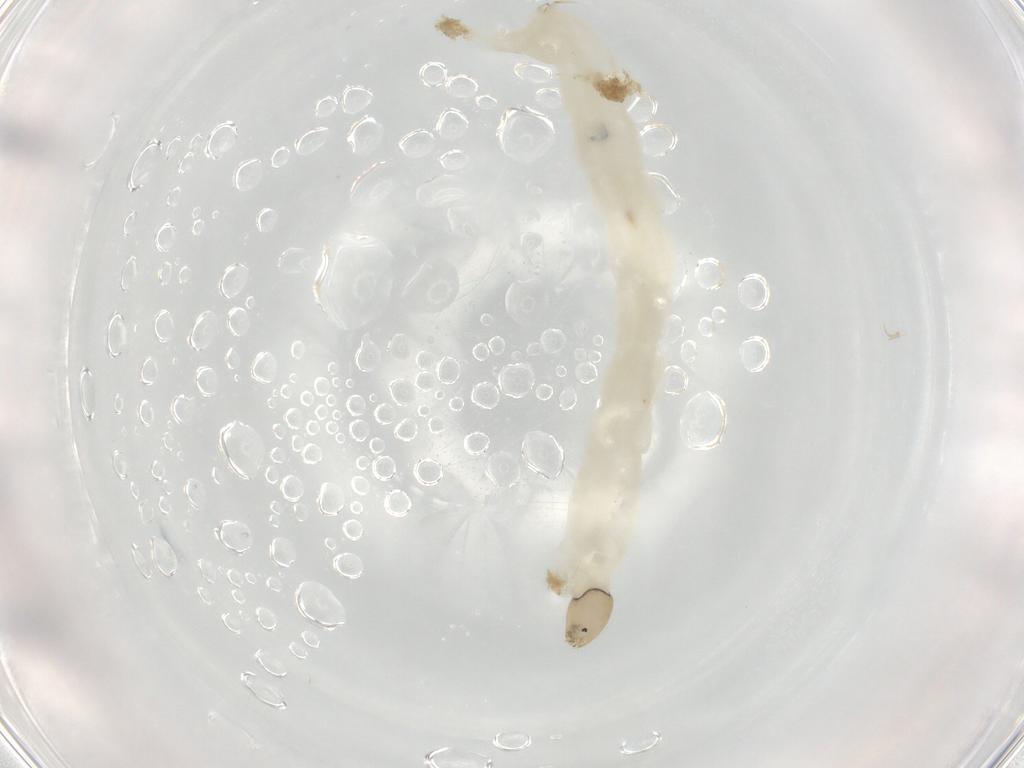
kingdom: Animalia
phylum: Arthropoda
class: Insecta
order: Diptera
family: Chironomidae
